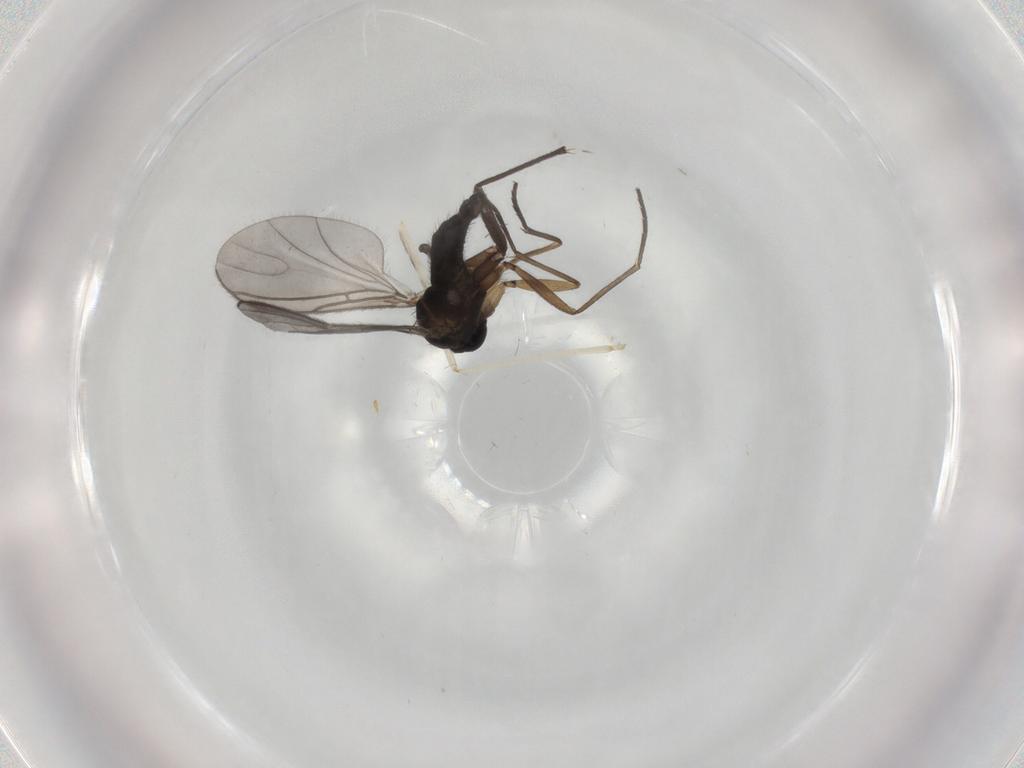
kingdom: Animalia
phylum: Arthropoda
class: Insecta
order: Diptera
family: Sciaridae
